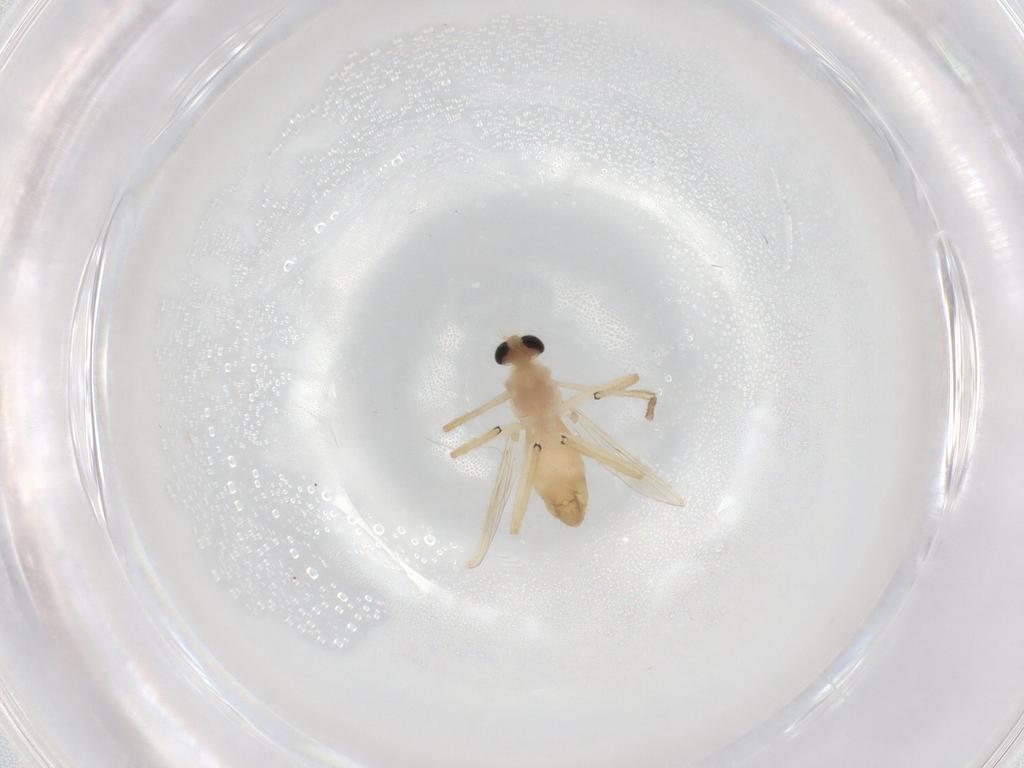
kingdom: Animalia
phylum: Arthropoda
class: Insecta
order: Diptera
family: Chironomidae
